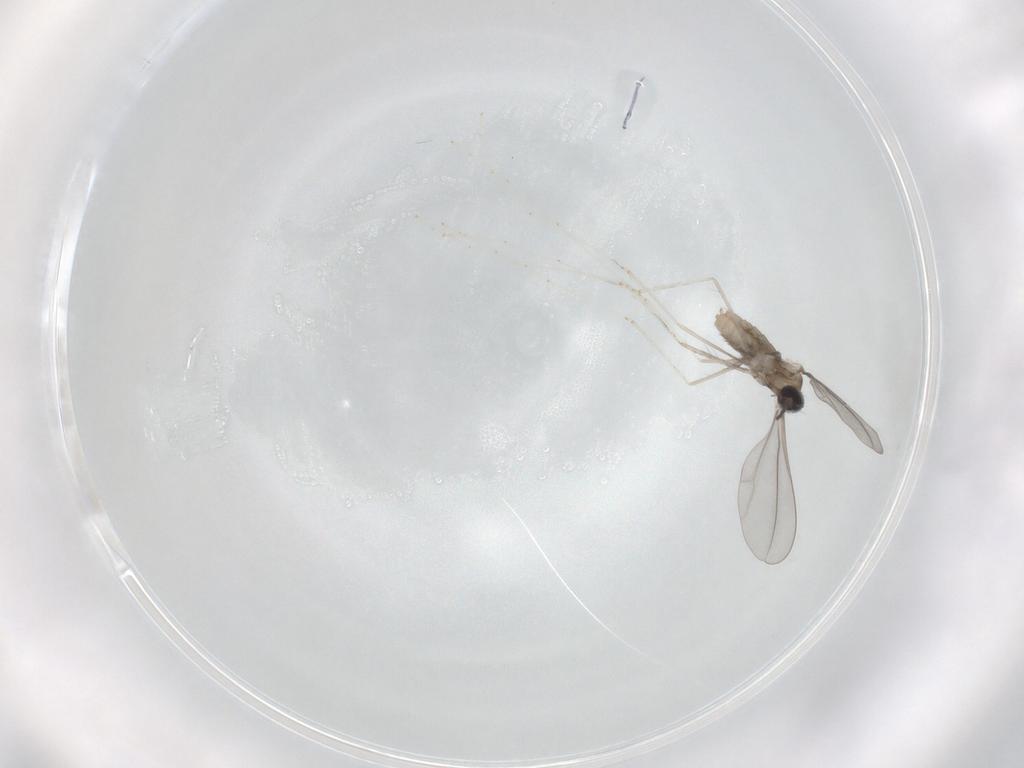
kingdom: Animalia
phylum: Arthropoda
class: Insecta
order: Diptera
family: Cecidomyiidae
